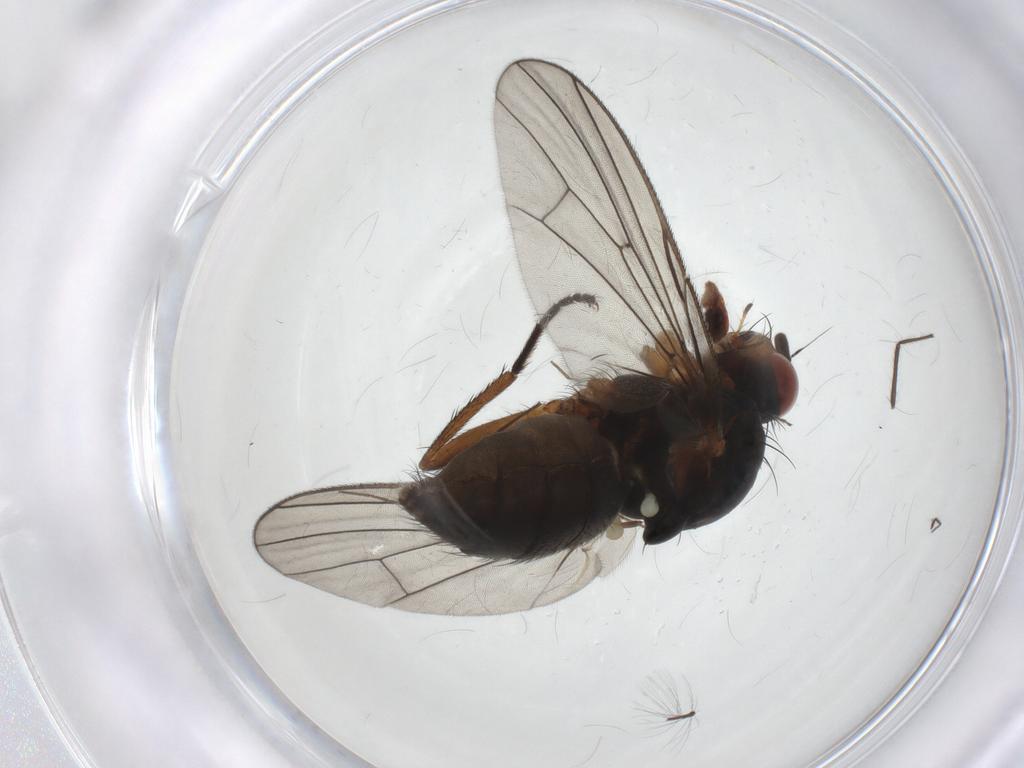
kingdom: Animalia
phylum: Arthropoda
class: Insecta
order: Diptera
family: Anthomyiidae
